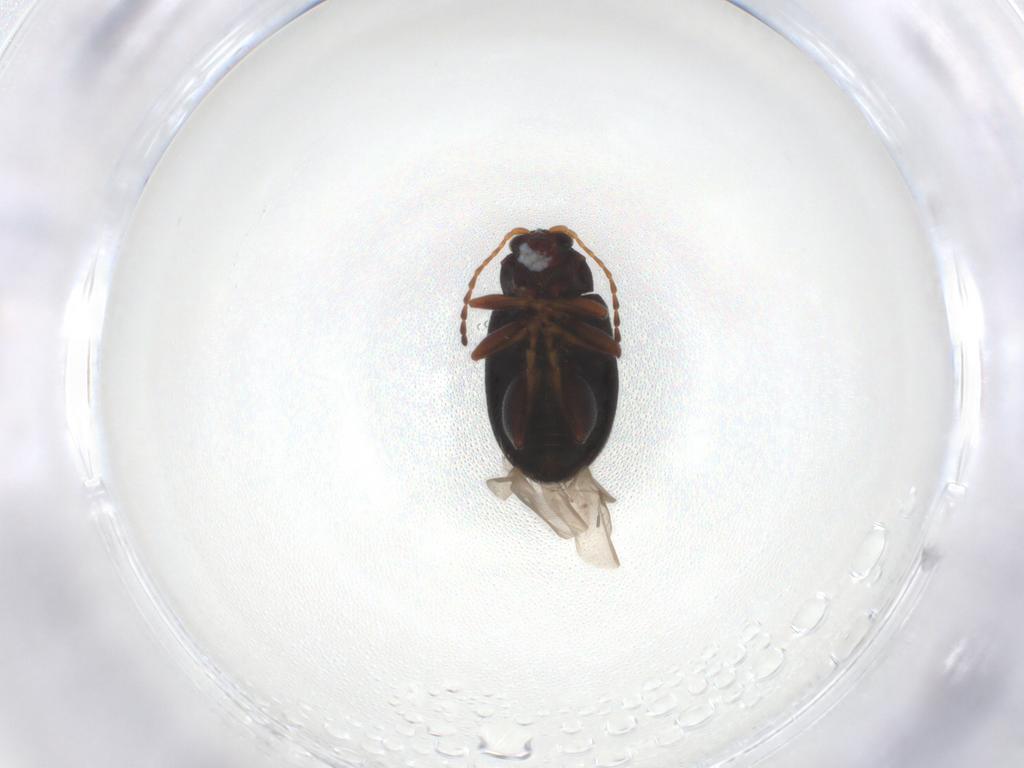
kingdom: Animalia
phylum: Arthropoda
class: Insecta
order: Coleoptera
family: Chrysomelidae
